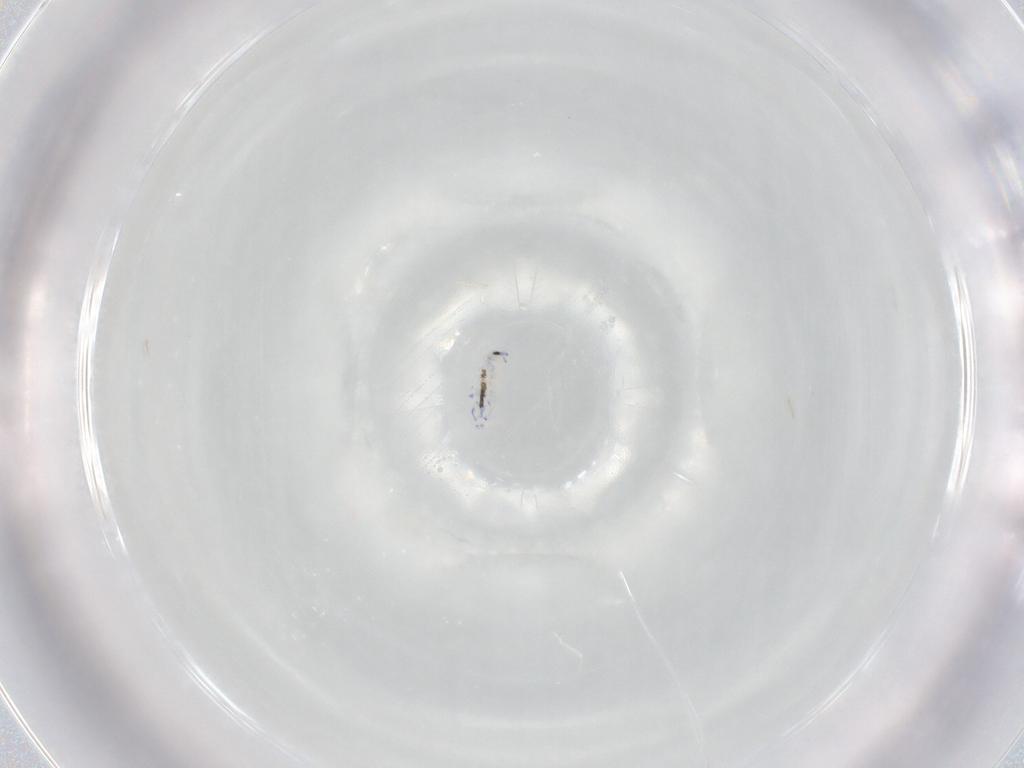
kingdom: Animalia
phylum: Arthropoda
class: Collembola
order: Entomobryomorpha
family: Entomobryidae
